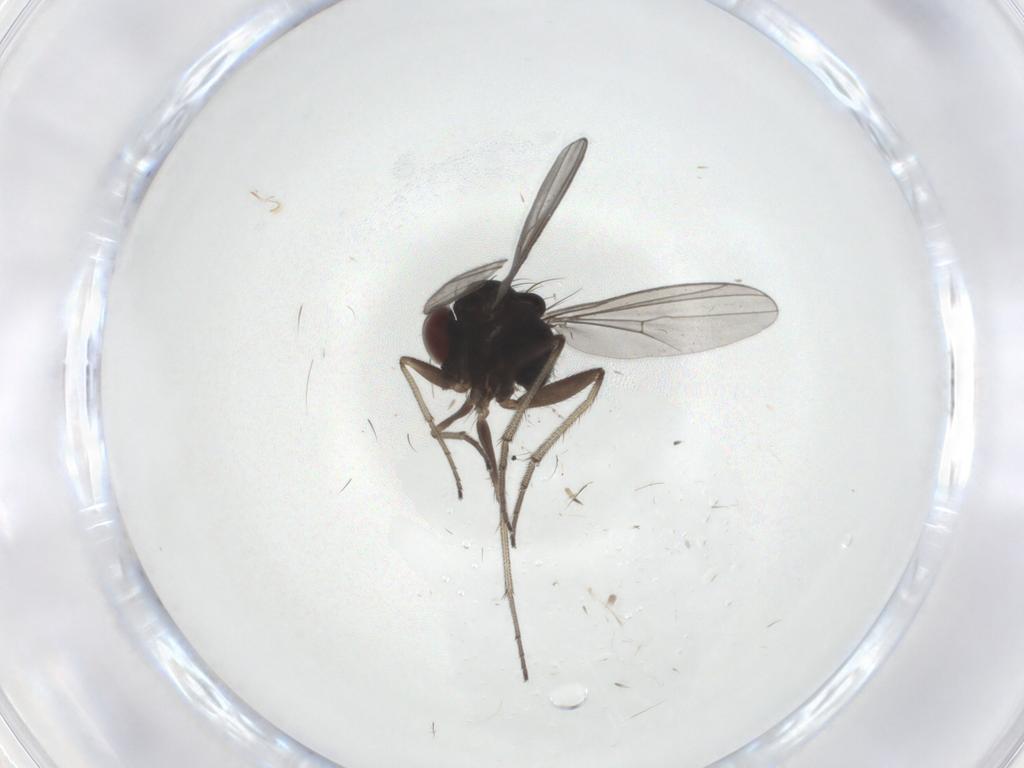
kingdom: Animalia
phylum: Arthropoda
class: Insecta
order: Diptera
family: Dolichopodidae
